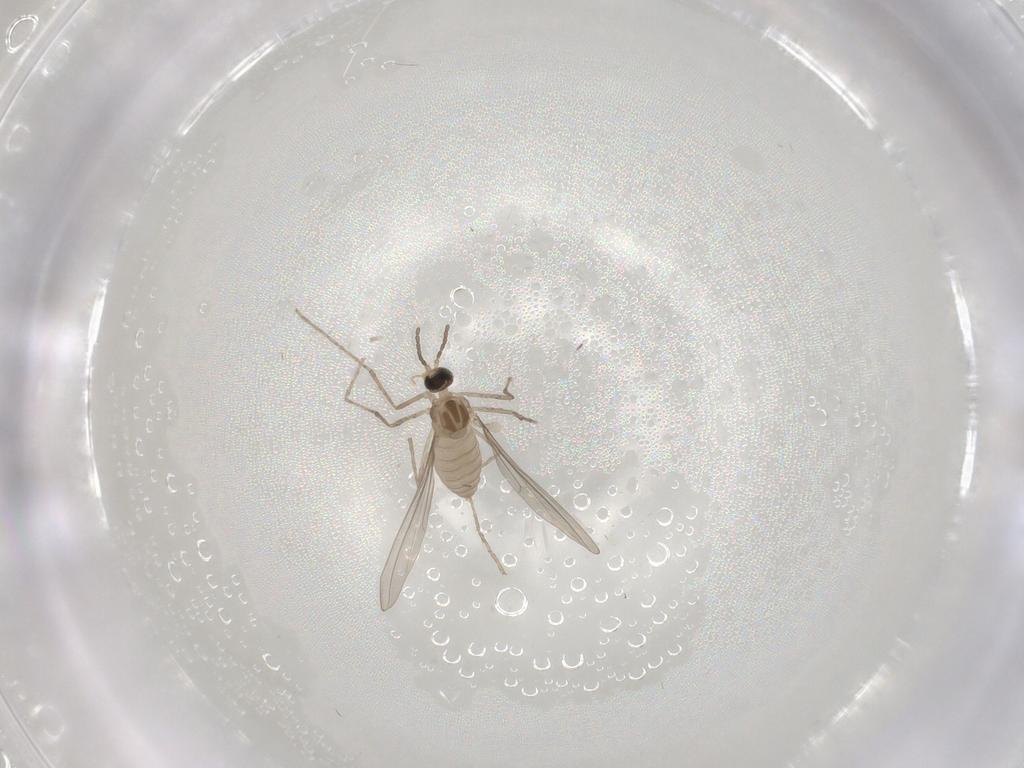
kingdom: Animalia
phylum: Arthropoda
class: Insecta
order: Diptera
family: Cecidomyiidae
